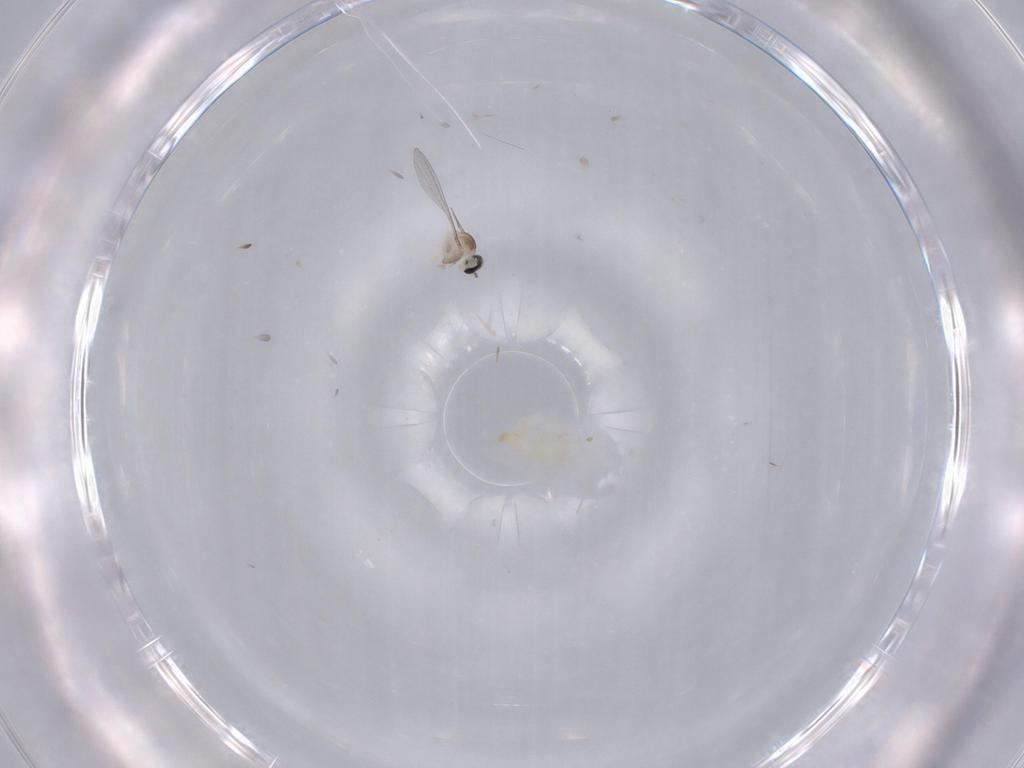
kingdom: Animalia
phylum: Arthropoda
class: Insecta
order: Diptera
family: Cecidomyiidae
